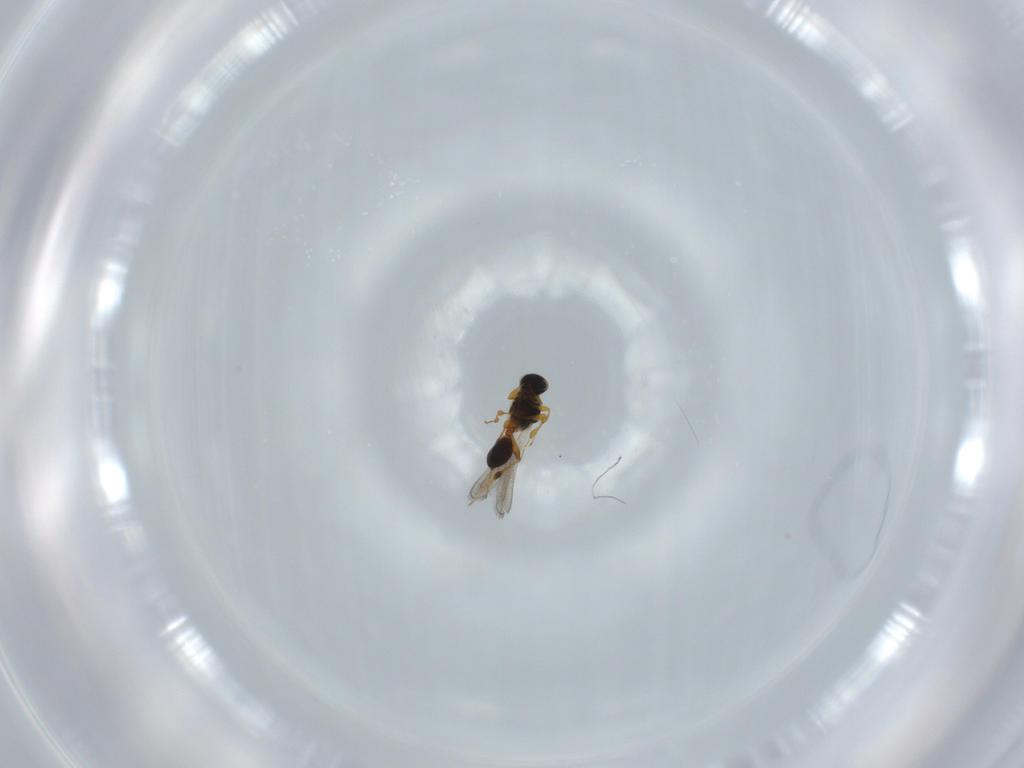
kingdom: Animalia
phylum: Arthropoda
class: Insecta
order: Hymenoptera
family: Platygastridae
